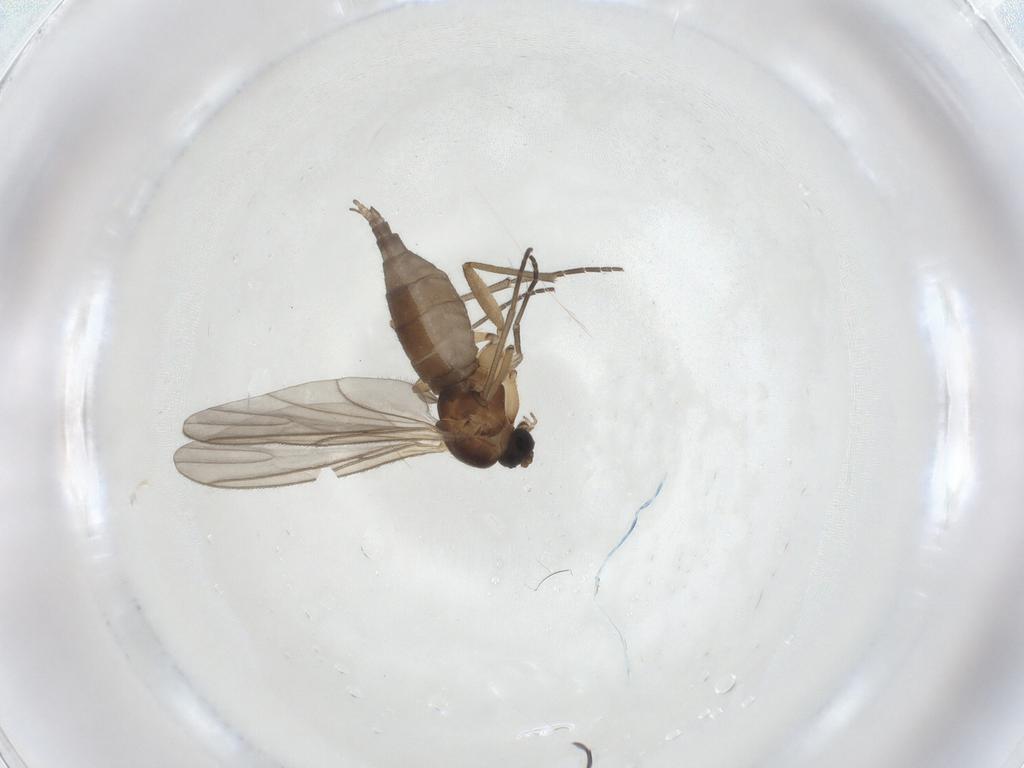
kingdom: Animalia
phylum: Arthropoda
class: Insecta
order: Diptera
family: Sciaridae
